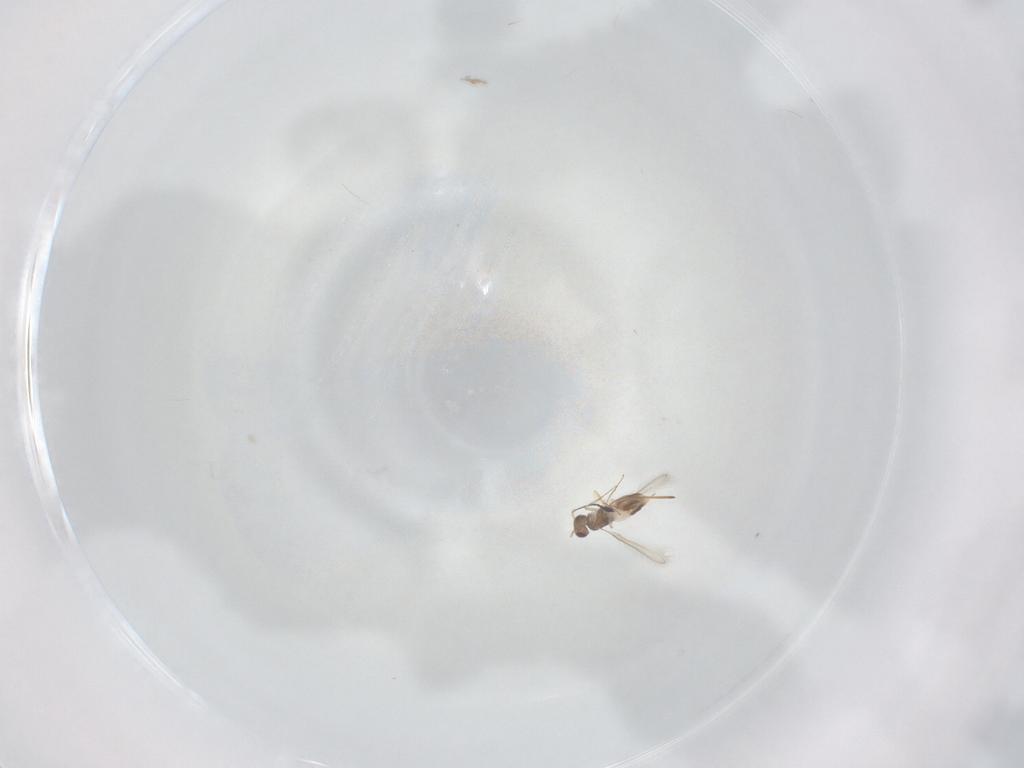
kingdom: Animalia
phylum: Arthropoda
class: Insecta
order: Hymenoptera
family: Mymaridae
